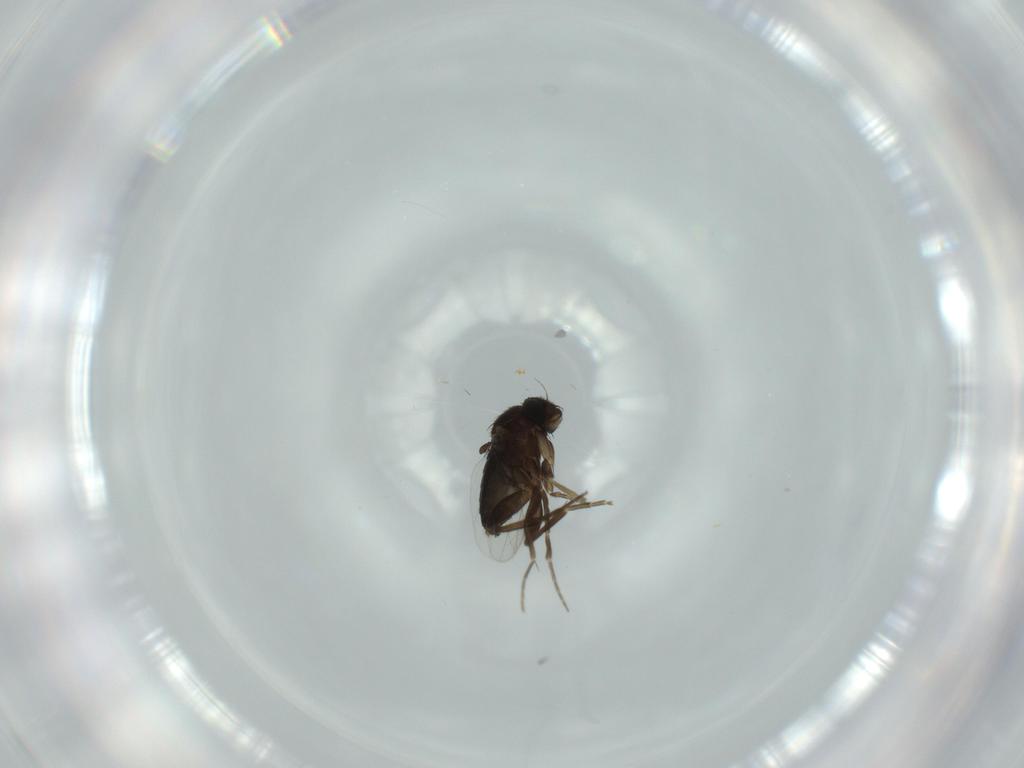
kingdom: Animalia
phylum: Arthropoda
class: Insecta
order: Diptera
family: Phoridae
